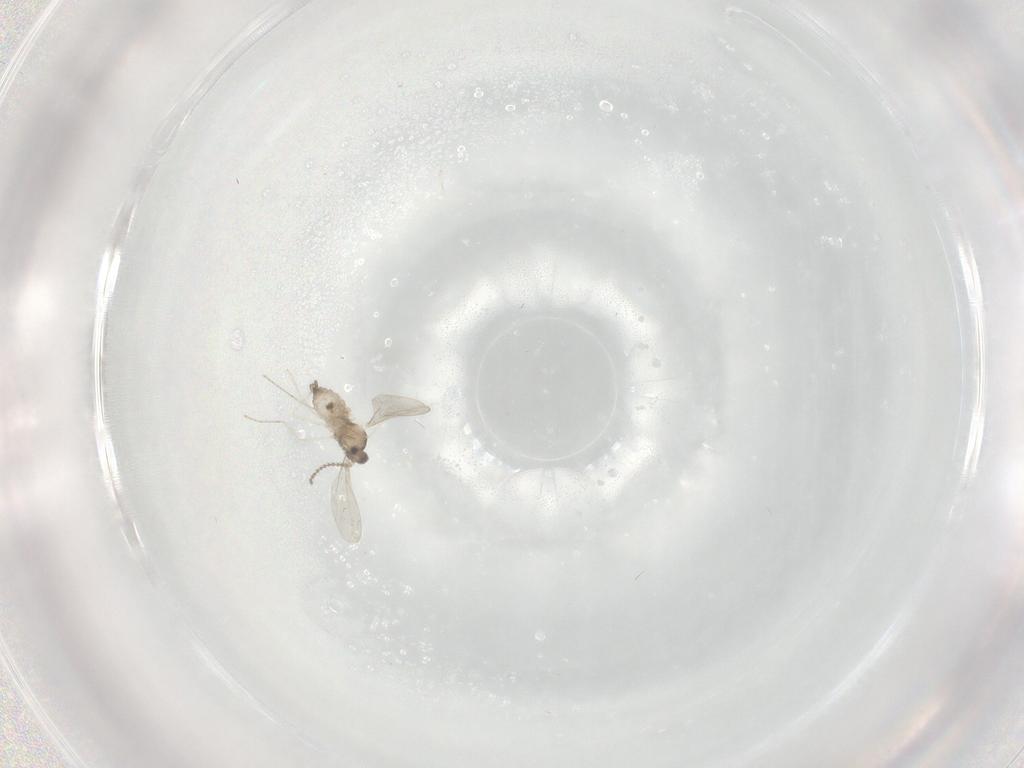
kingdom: Animalia
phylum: Arthropoda
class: Insecta
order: Diptera
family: Cecidomyiidae
